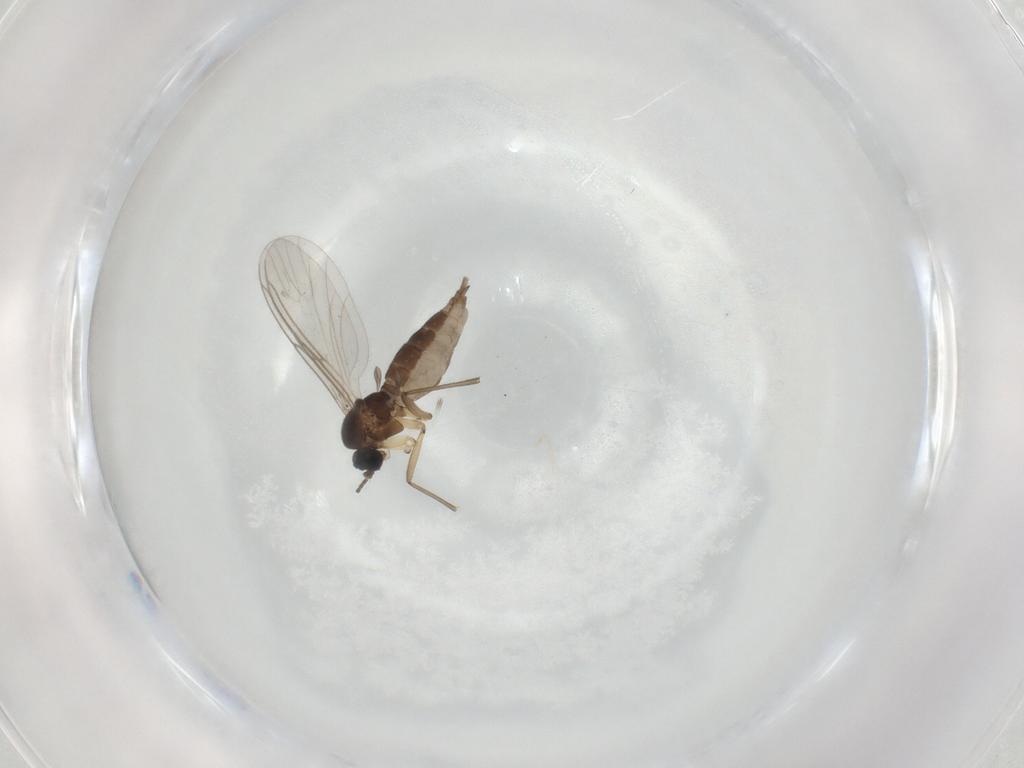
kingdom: Animalia
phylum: Arthropoda
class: Insecta
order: Diptera
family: Sciaridae
